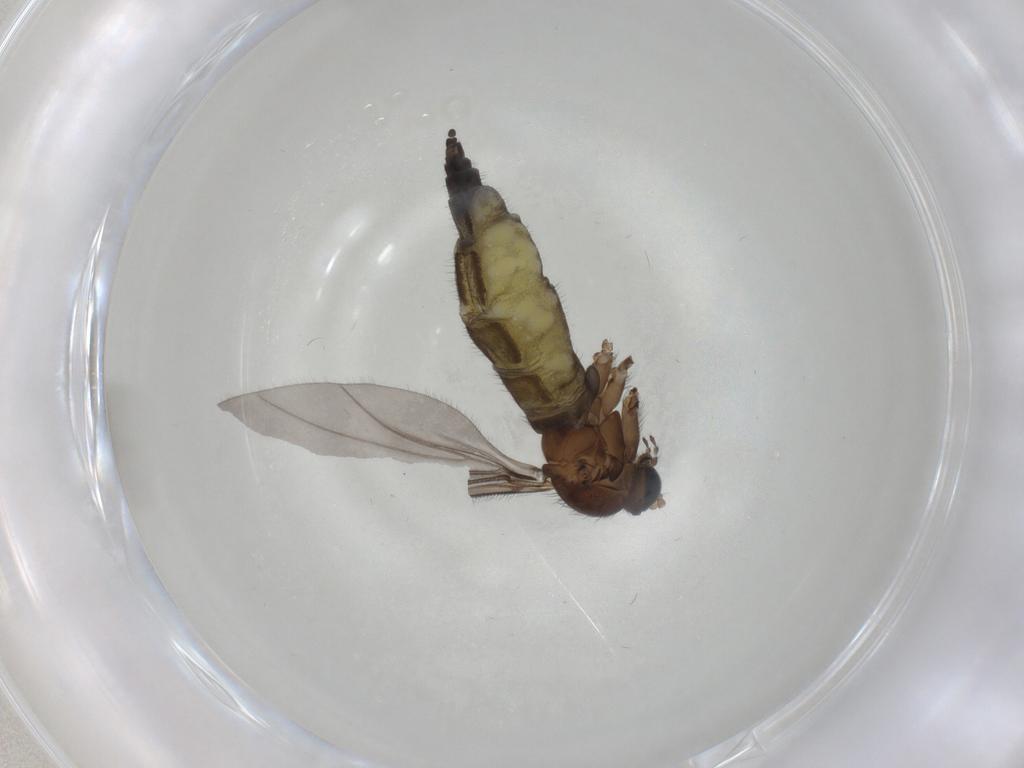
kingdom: Animalia
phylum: Arthropoda
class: Insecta
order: Diptera
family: Sciaridae
